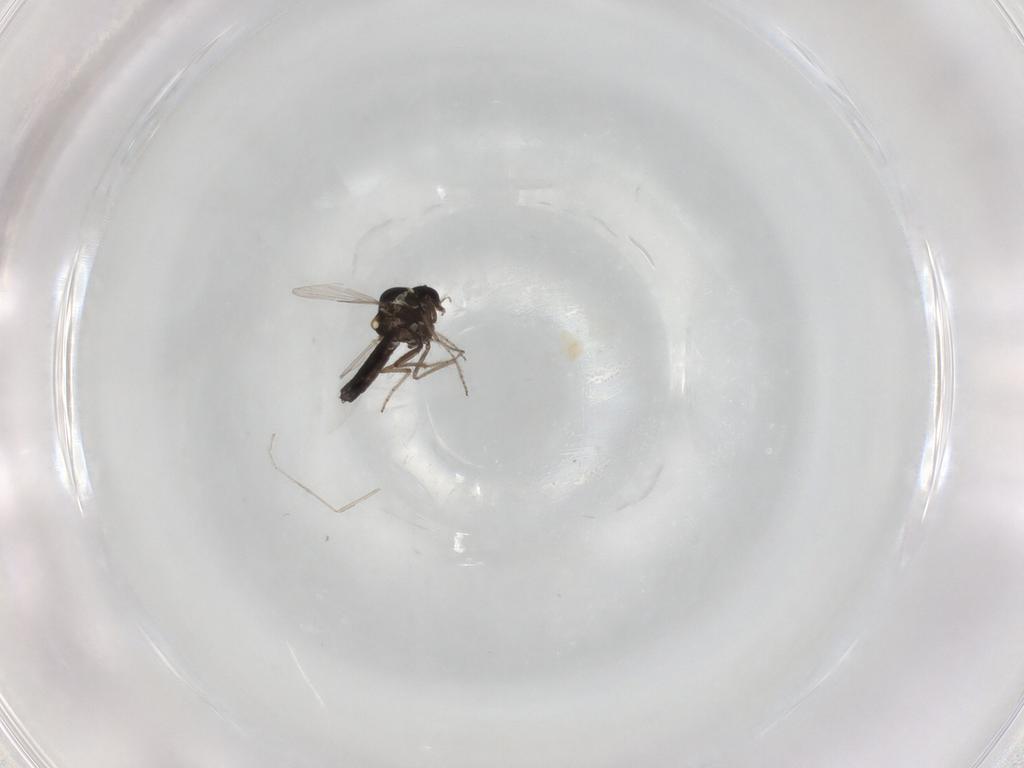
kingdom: Animalia
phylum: Arthropoda
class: Insecta
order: Diptera
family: Ceratopogonidae
